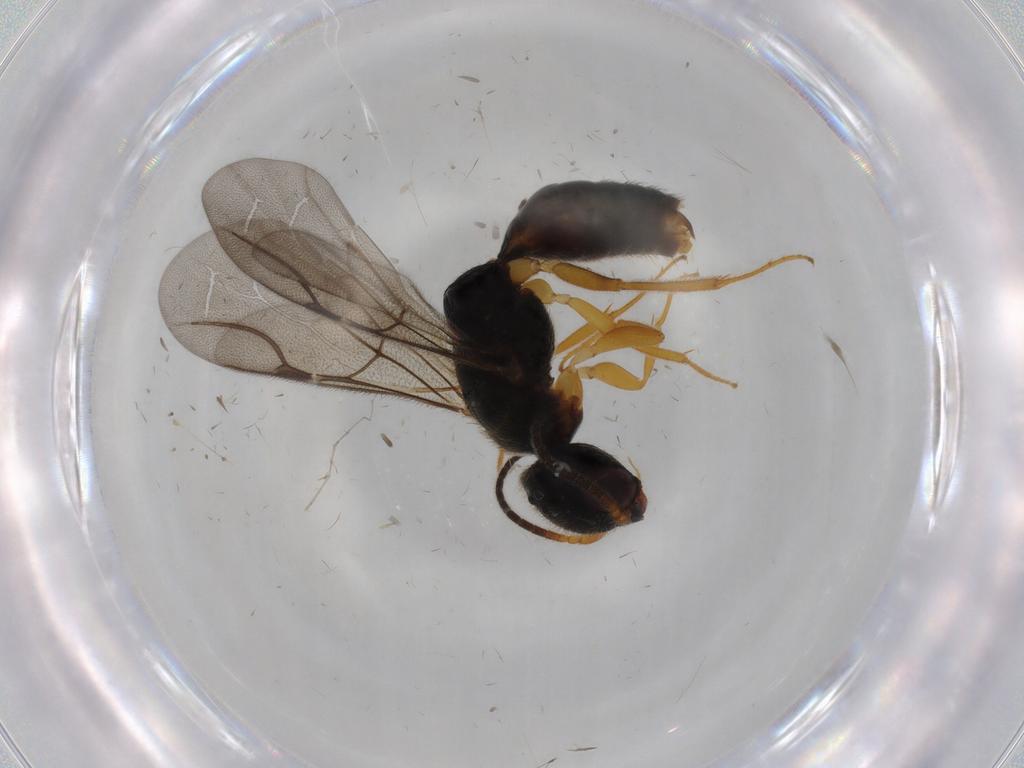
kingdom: Animalia
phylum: Arthropoda
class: Insecta
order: Hymenoptera
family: Bethylidae
